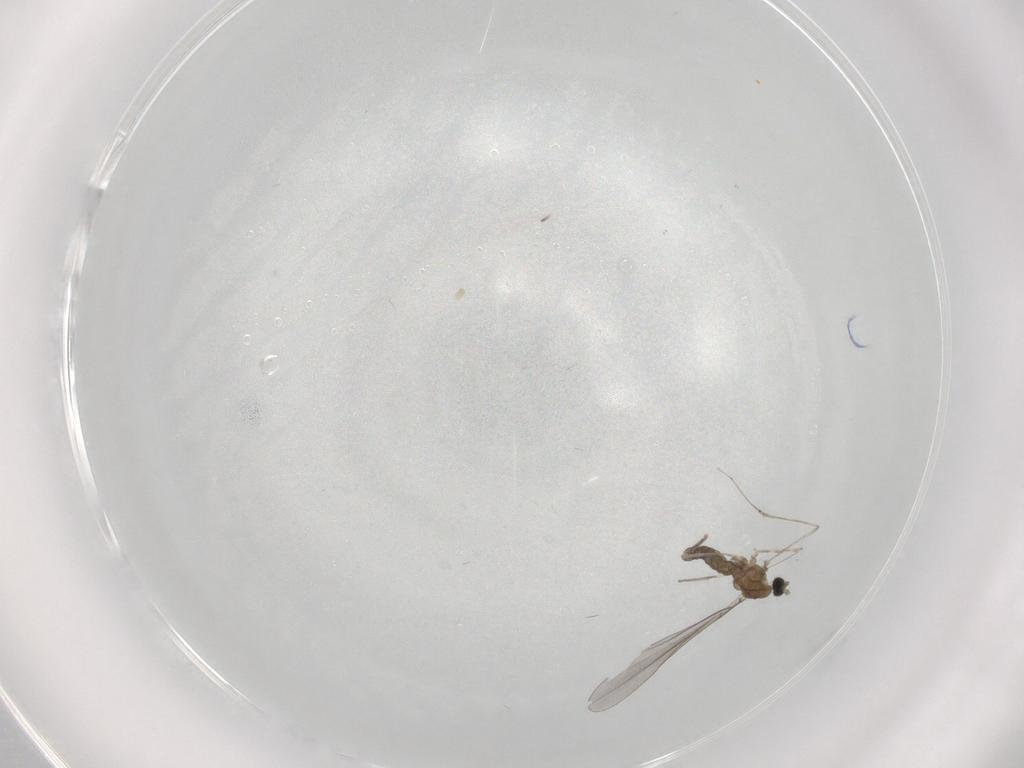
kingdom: Animalia
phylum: Arthropoda
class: Insecta
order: Diptera
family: Cecidomyiidae
